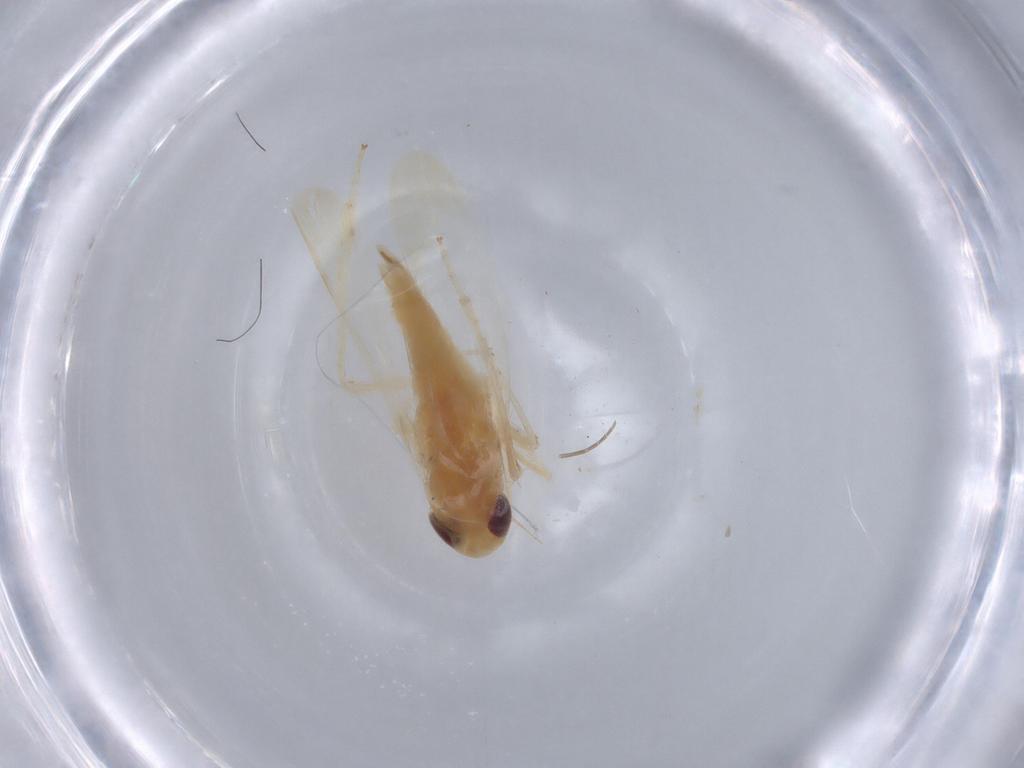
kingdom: Animalia
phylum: Arthropoda
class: Insecta
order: Hemiptera
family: Cicadellidae
